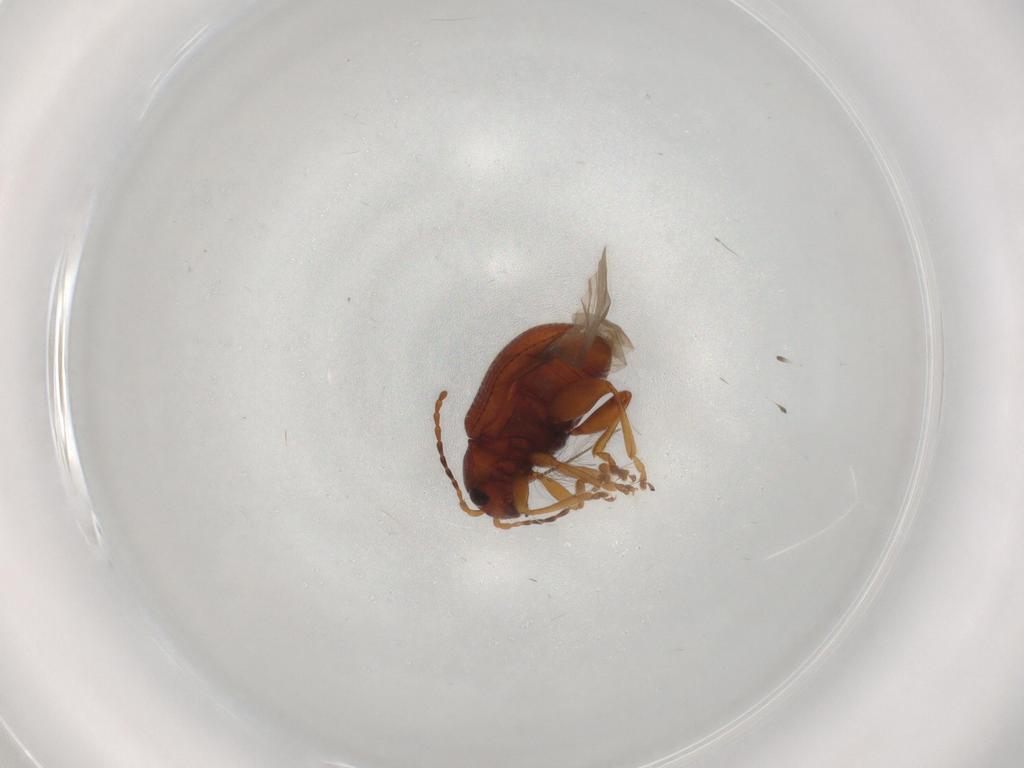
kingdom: Animalia
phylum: Arthropoda
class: Insecta
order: Coleoptera
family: Chrysomelidae
